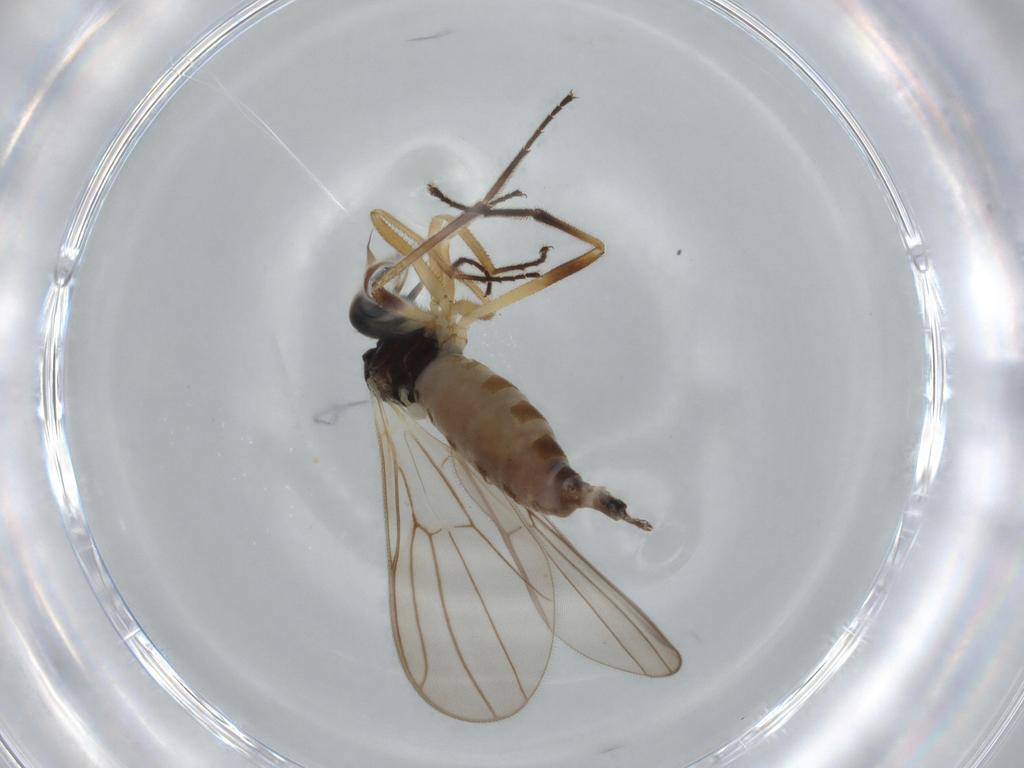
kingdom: Animalia
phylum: Arthropoda
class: Insecta
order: Diptera
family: Chironomidae
